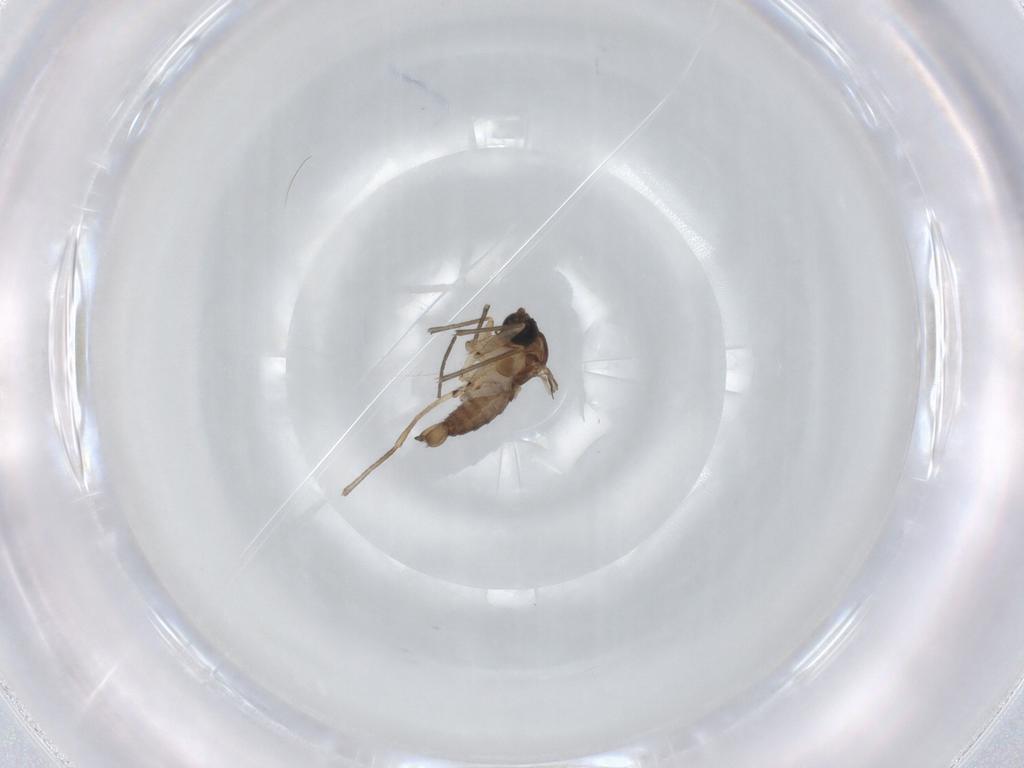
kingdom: Animalia
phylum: Arthropoda
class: Insecta
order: Diptera
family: Sciaridae
